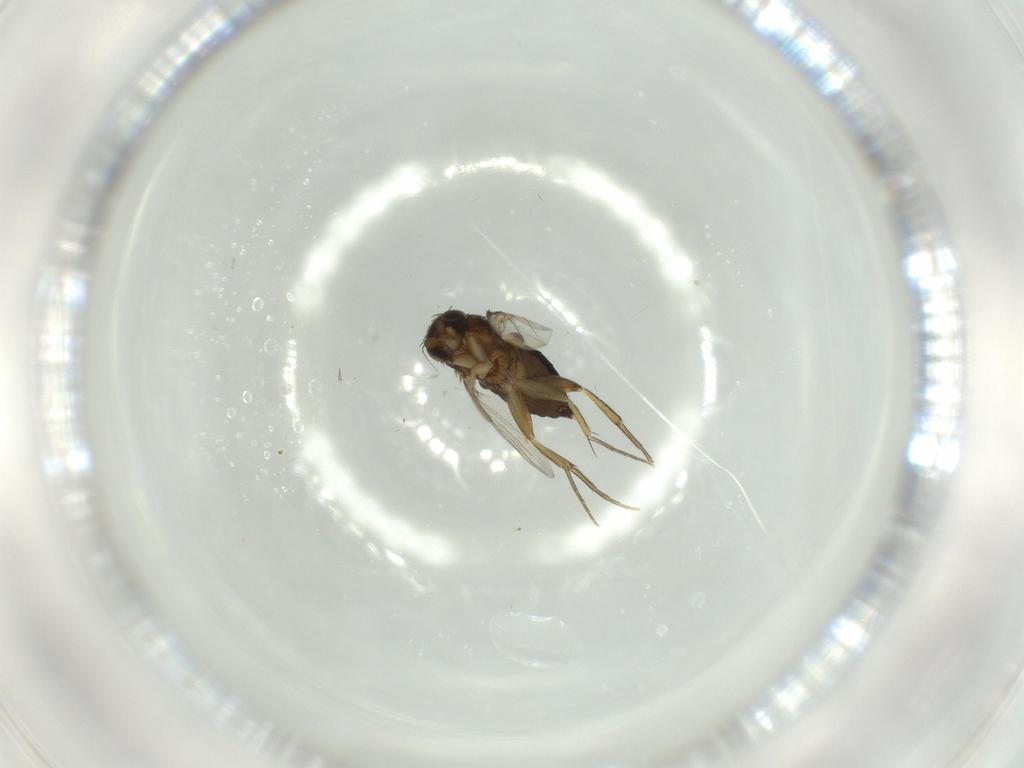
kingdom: Animalia
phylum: Arthropoda
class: Insecta
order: Diptera
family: Phoridae
